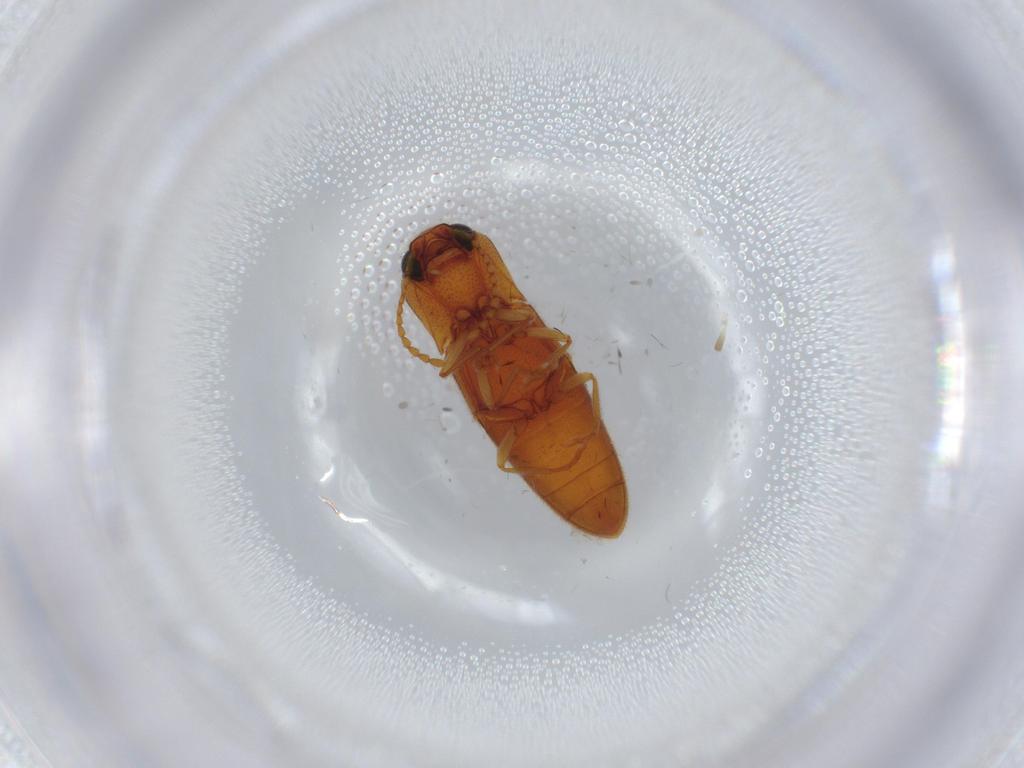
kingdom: Animalia
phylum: Arthropoda
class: Insecta
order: Coleoptera
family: Elateridae
